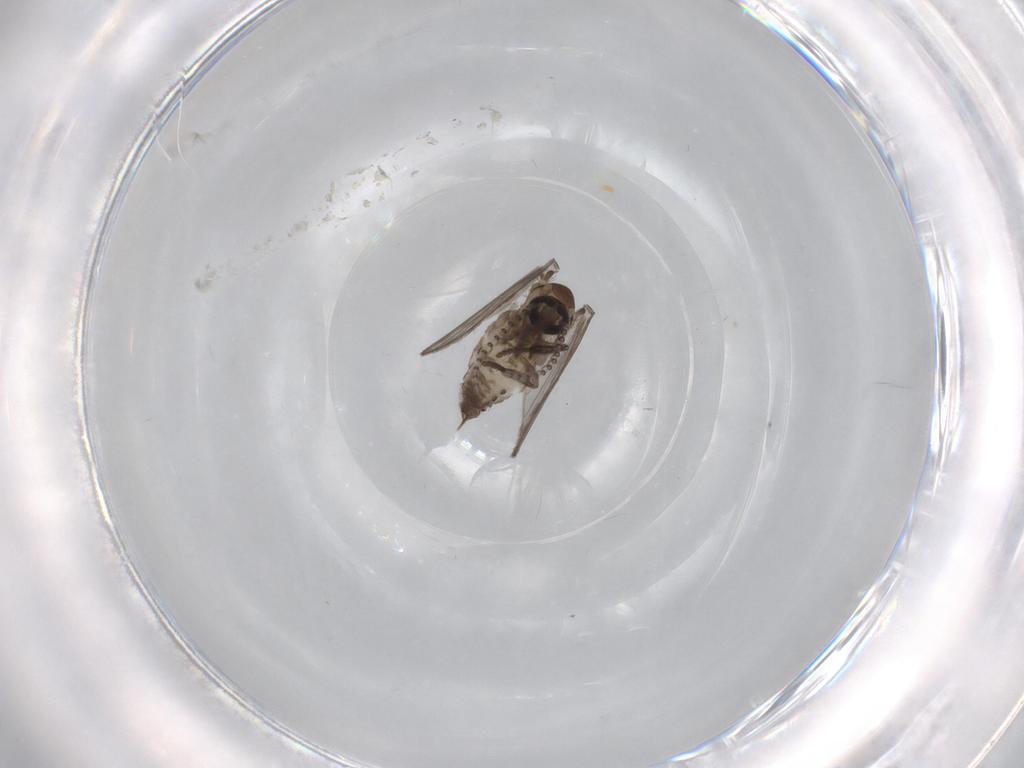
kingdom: Animalia
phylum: Arthropoda
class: Insecta
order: Diptera
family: Psychodidae
